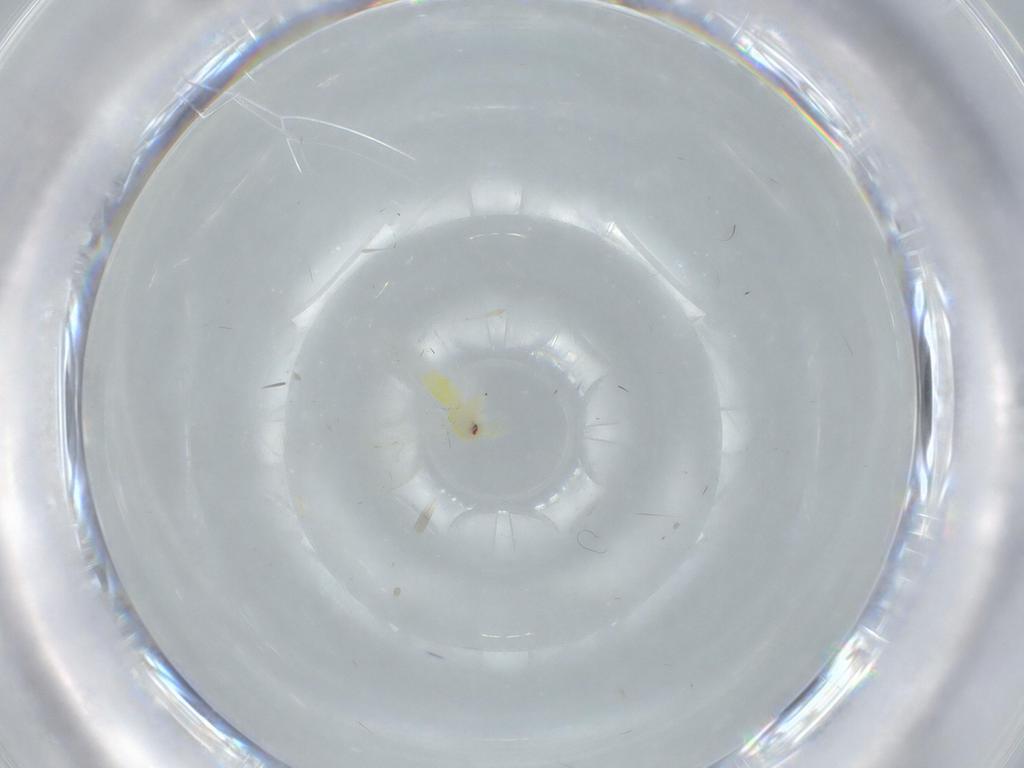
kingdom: Animalia
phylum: Arthropoda
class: Insecta
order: Hemiptera
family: Aleyrodidae
